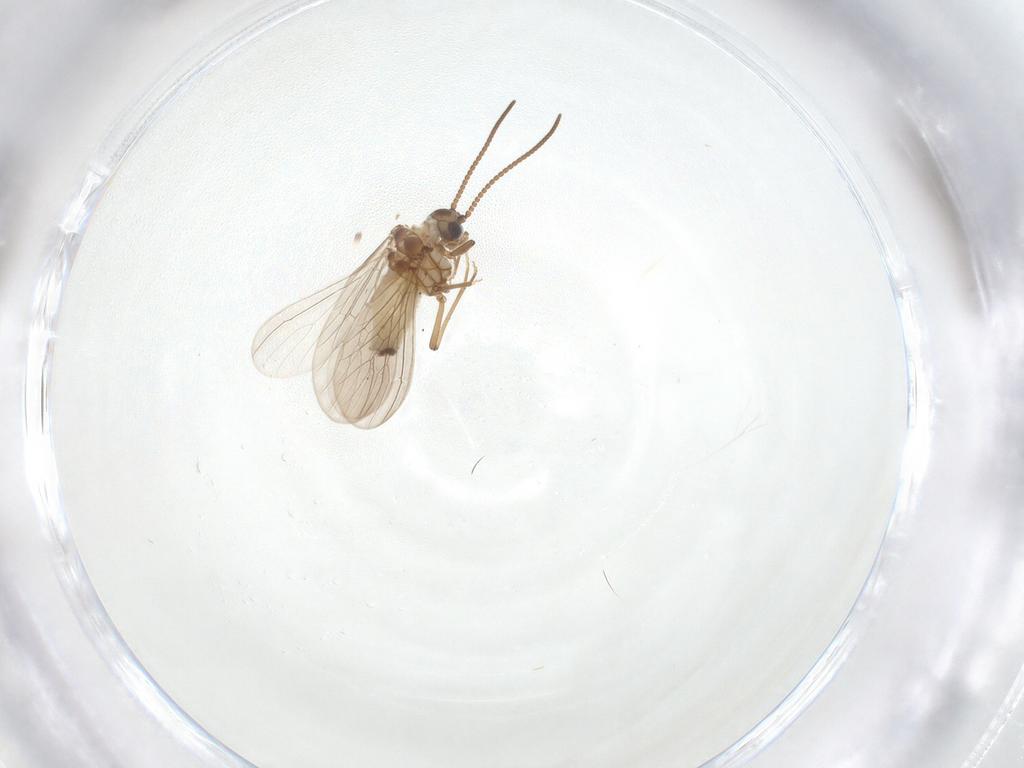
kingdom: Animalia
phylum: Arthropoda
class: Insecta
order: Neuroptera
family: Coniopterygidae
